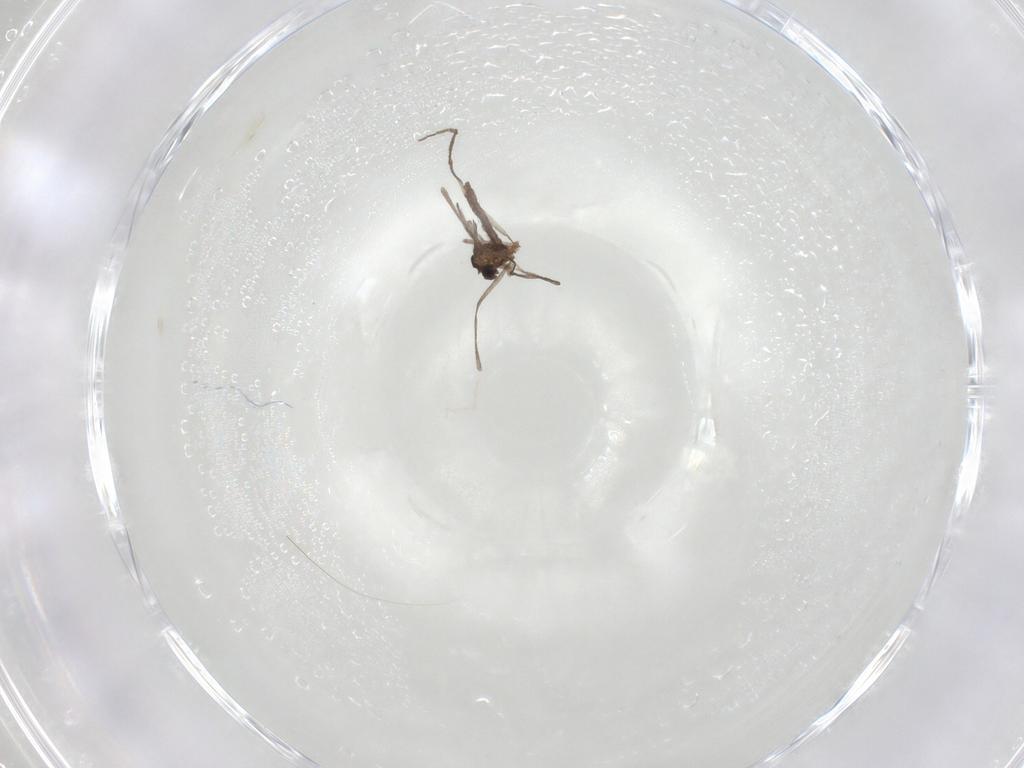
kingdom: Animalia
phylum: Arthropoda
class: Insecta
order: Diptera
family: Cecidomyiidae
